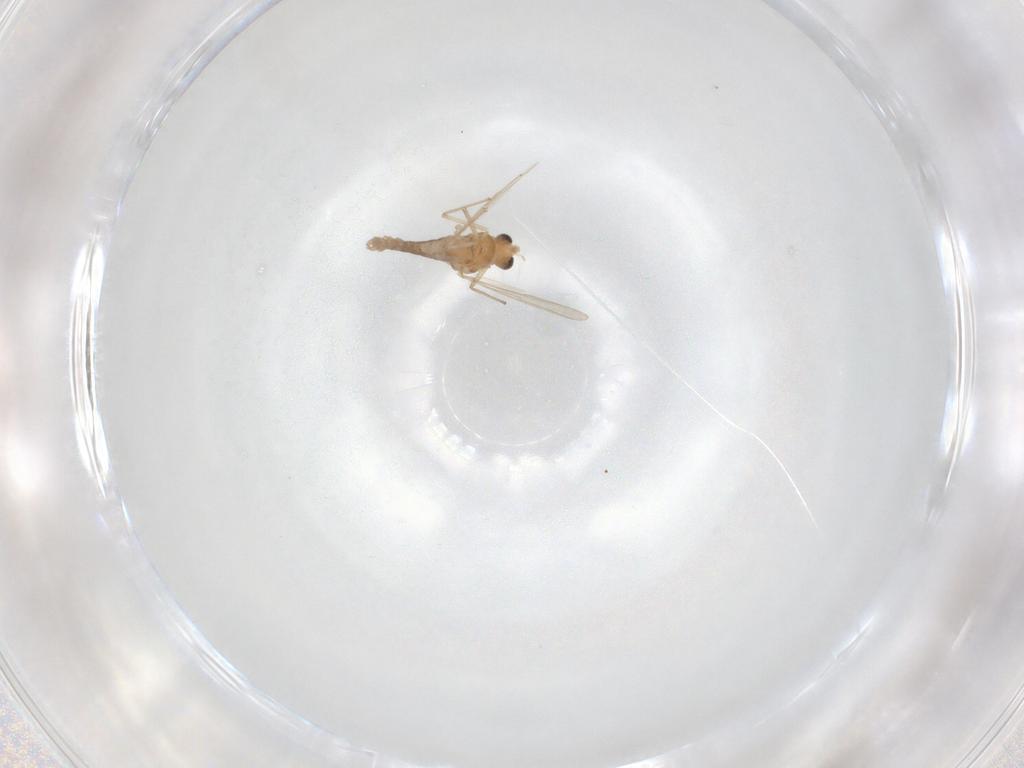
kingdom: Animalia
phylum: Arthropoda
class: Insecta
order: Diptera
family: Chironomidae
